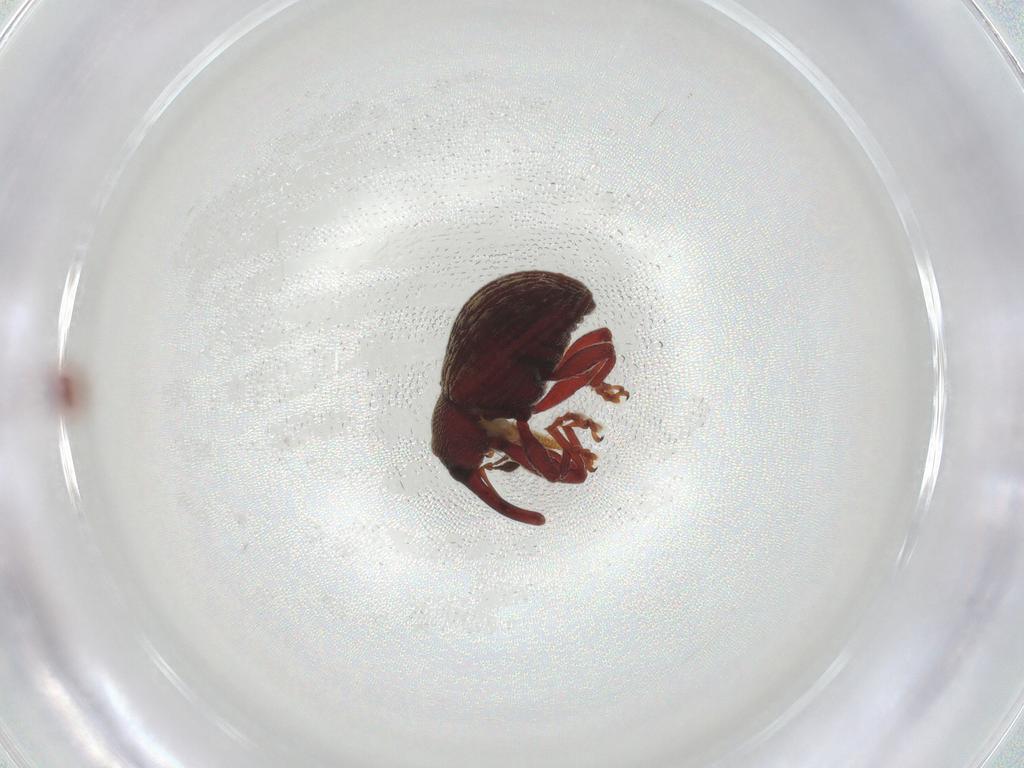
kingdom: Animalia
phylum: Arthropoda
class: Insecta
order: Coleoptera
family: Curculionidae
